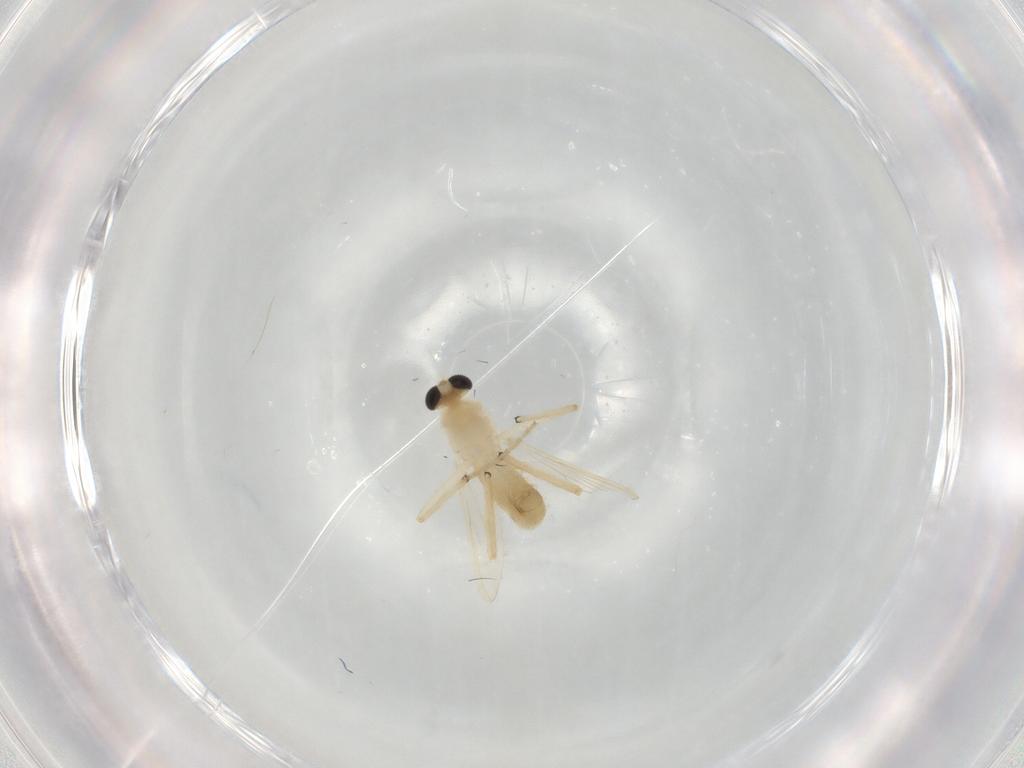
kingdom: Animalia
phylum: Arthropoda
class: Insecta
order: Diptera
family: Chironomidae
